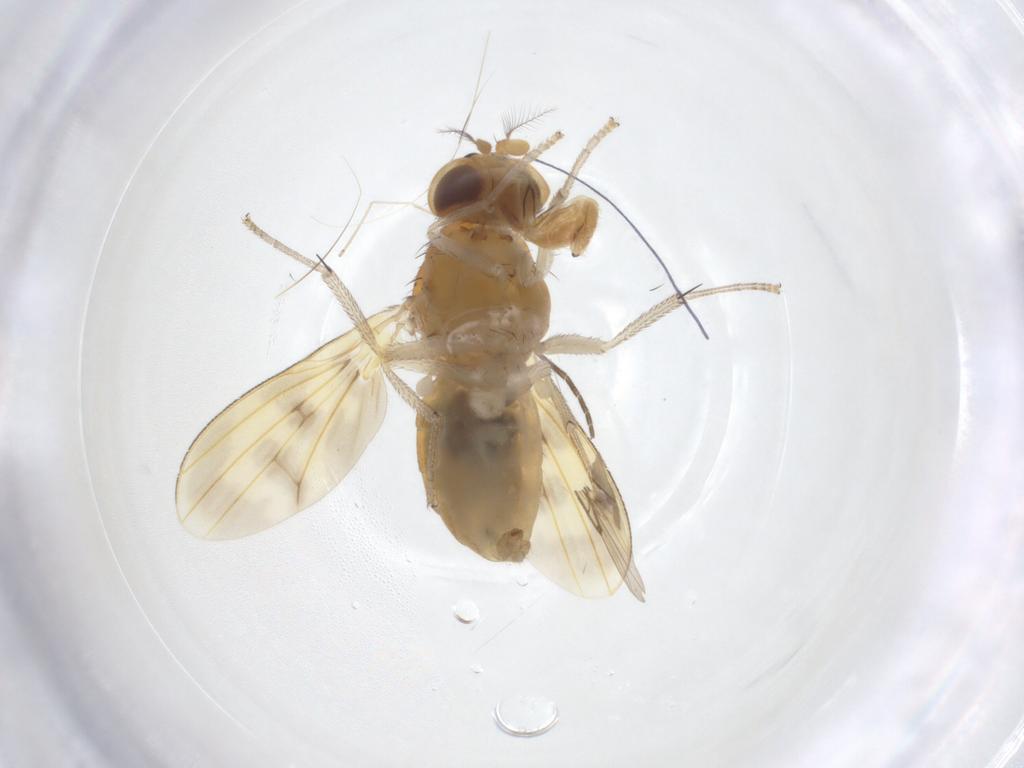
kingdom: Animalia
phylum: Arthropoda
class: Insecta
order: Diptera
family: Sciaridae
